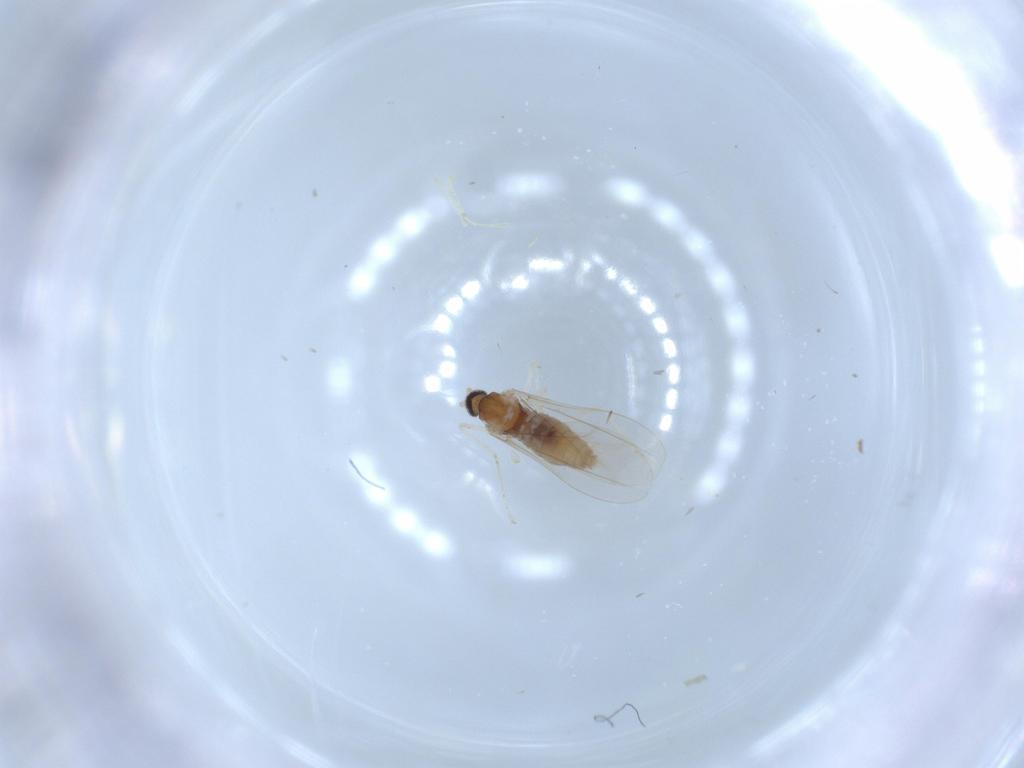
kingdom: Animalia
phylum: Arthropoda
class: Insecta
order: Diptera
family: Cecidomyiidae
